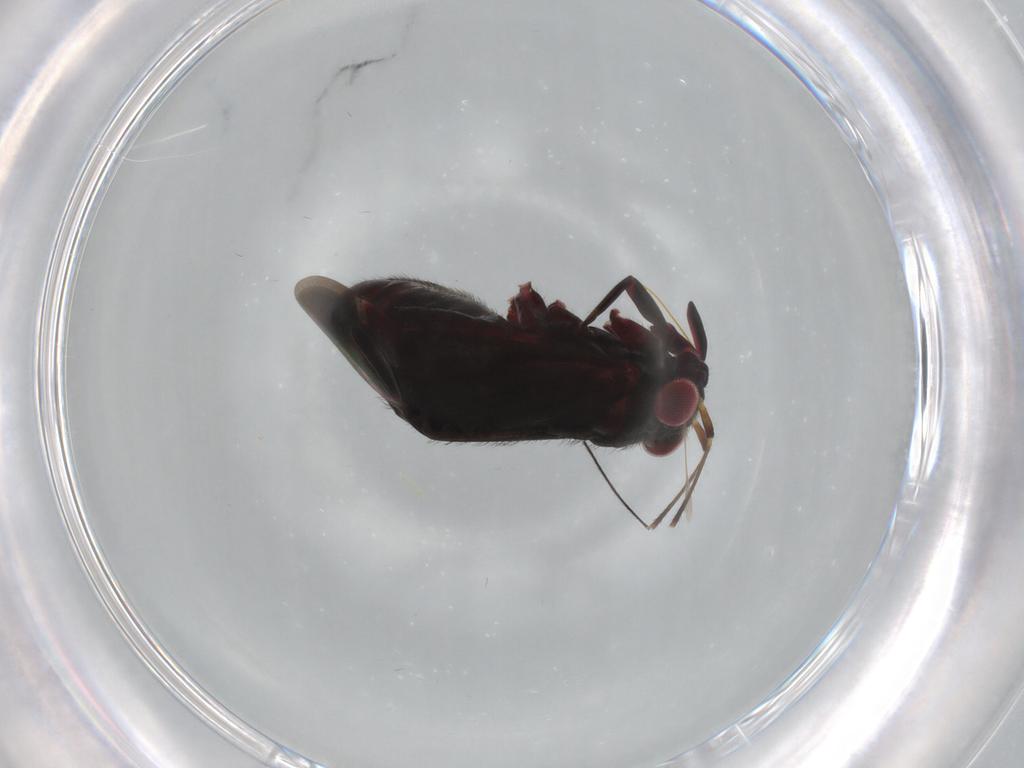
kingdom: Animalia
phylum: Arthropoda
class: Insecta
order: Hemiptera
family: Miridae
